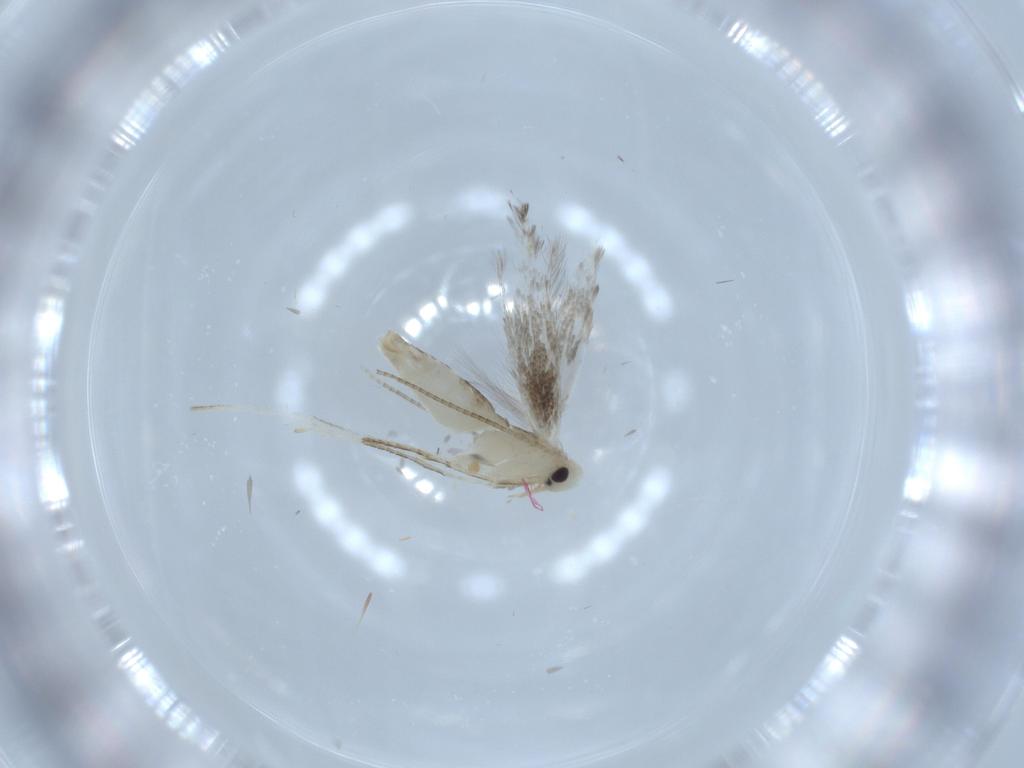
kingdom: Animalia
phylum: Arthropoda
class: Insecta
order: Lepidoptera
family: Gracillariidae
